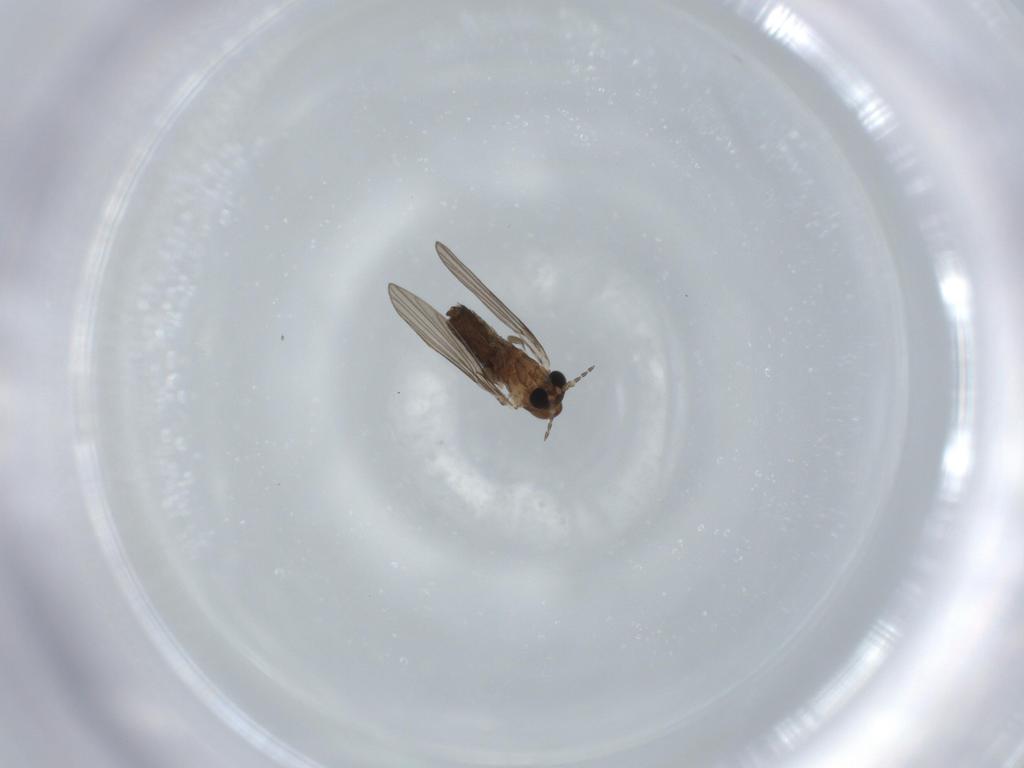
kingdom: Animalia
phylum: Arthropoda
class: Insecta
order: Diptera
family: Psychodidae
